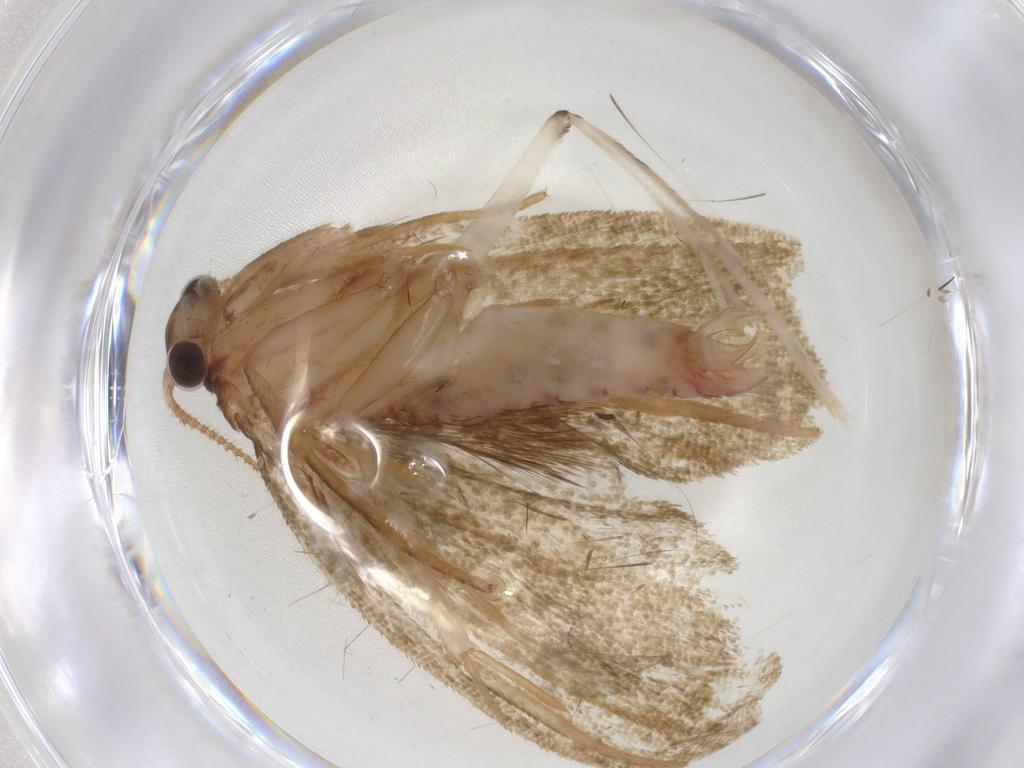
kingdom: Animalia
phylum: Arthropoda
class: Insecta
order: Lepidoptera
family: Geometridae
